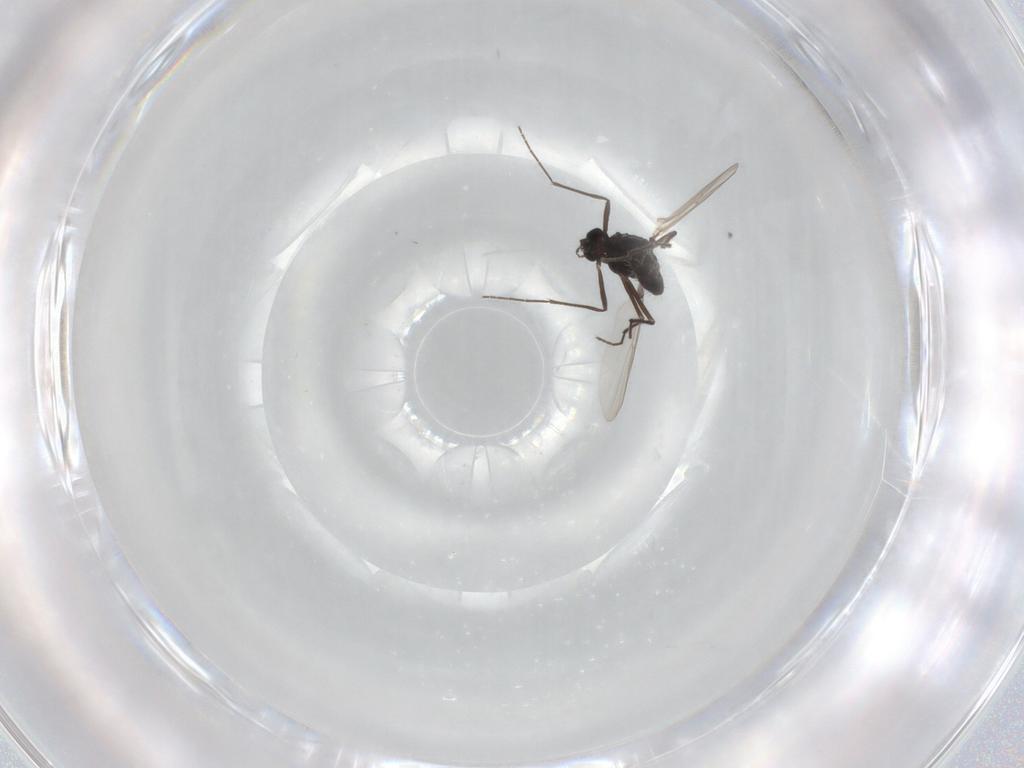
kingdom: Animalia
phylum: Arthropoda
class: Insecta
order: Diptera
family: Chironomidae
